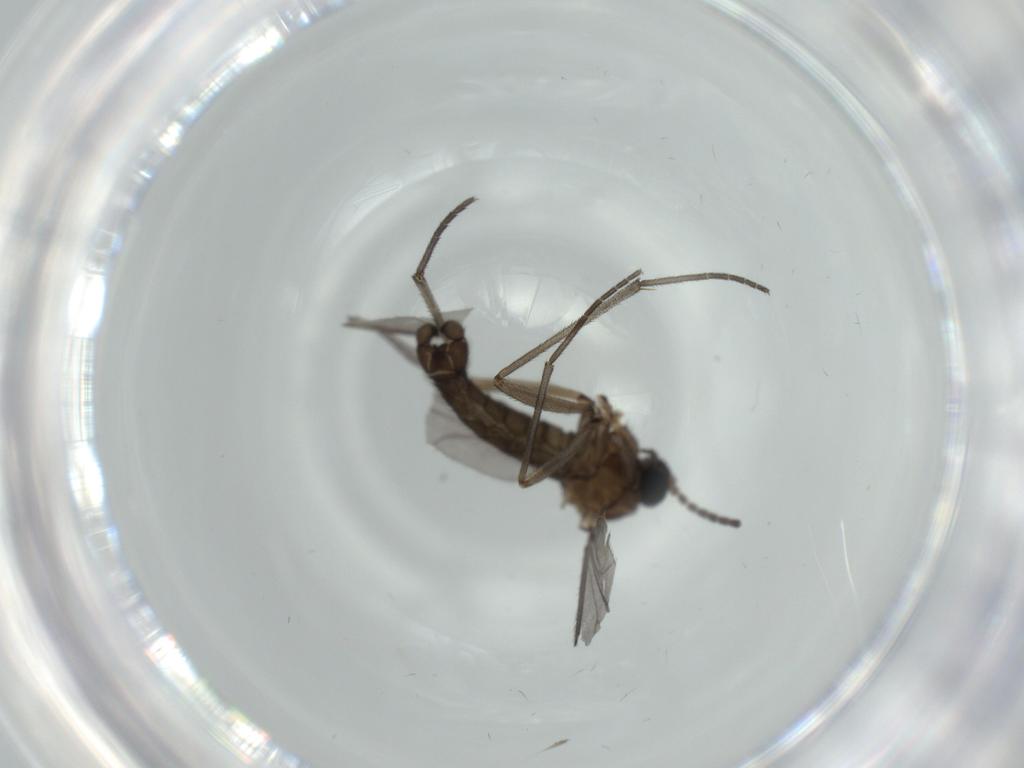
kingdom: Animalia
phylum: Arthropoda
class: Insecta
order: Diptera
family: Sciaridae
